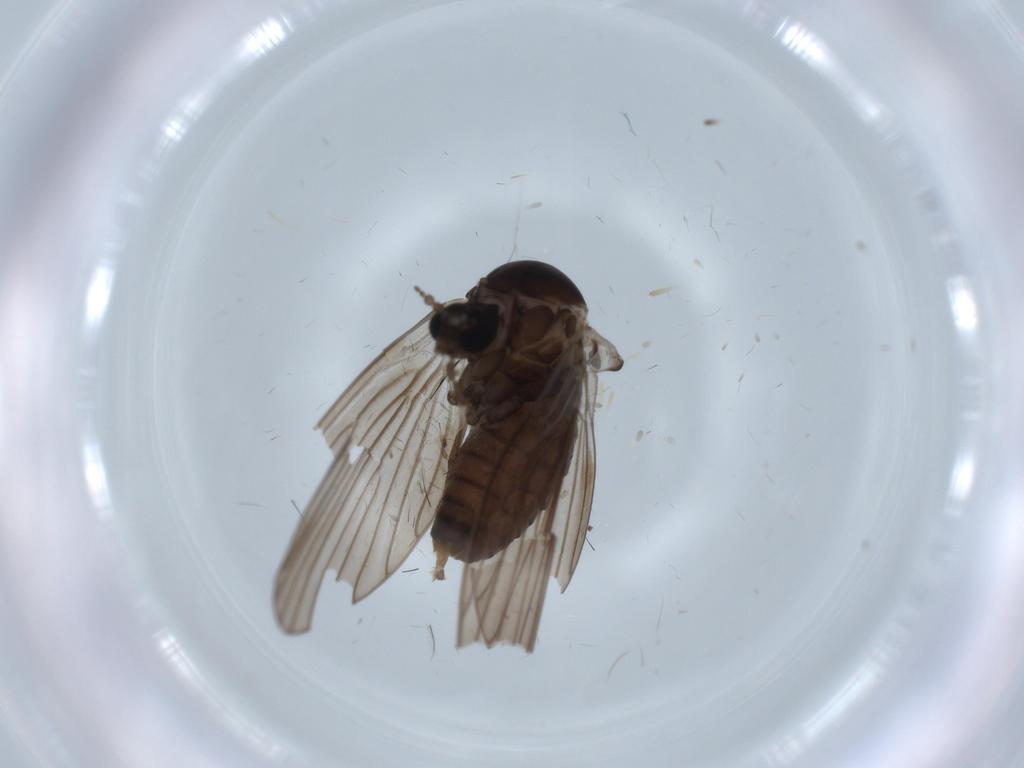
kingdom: Animalia
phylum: Arthropoda
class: Insecta
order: Diptera
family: Psychodidae
